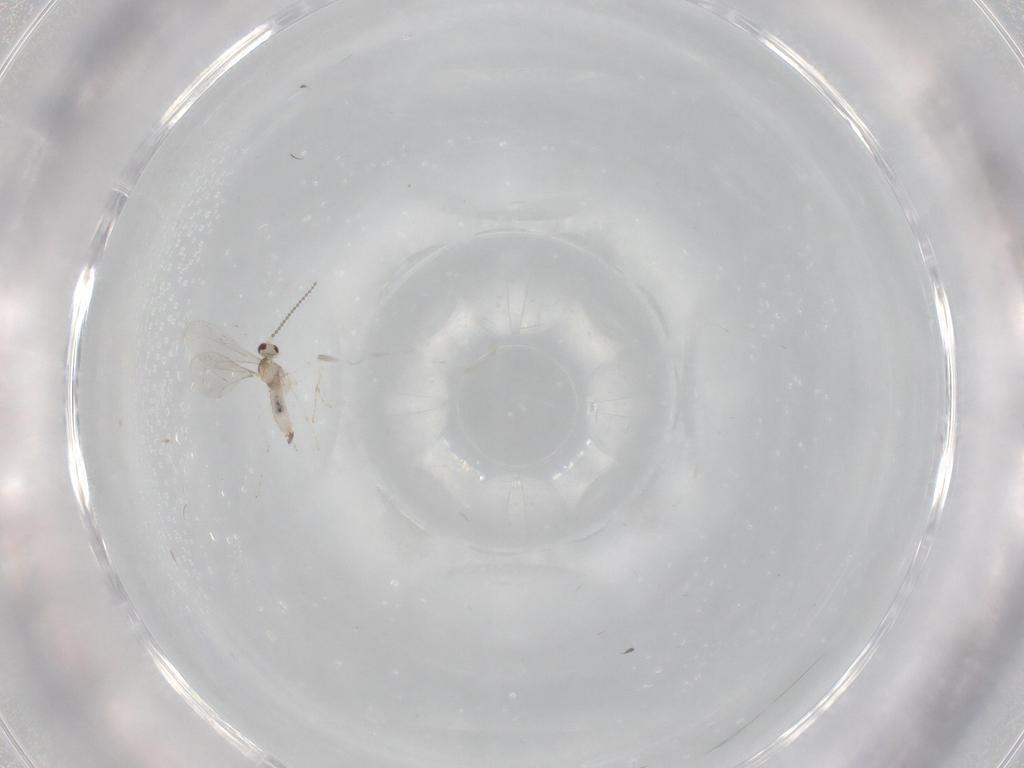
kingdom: Animalia
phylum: Arthropoda
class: Insecta
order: Diptera
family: Cecidomyiidae
